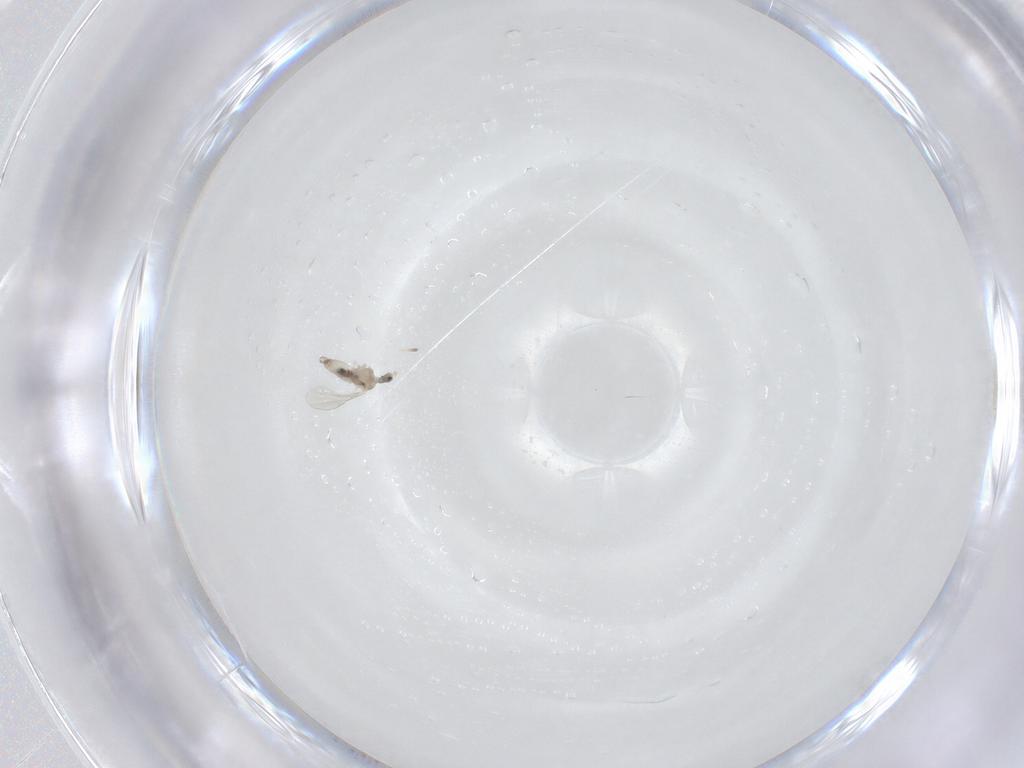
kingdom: Animalia
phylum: Arthropoda
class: Insecta
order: Diptera
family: Cecidomyiidae
